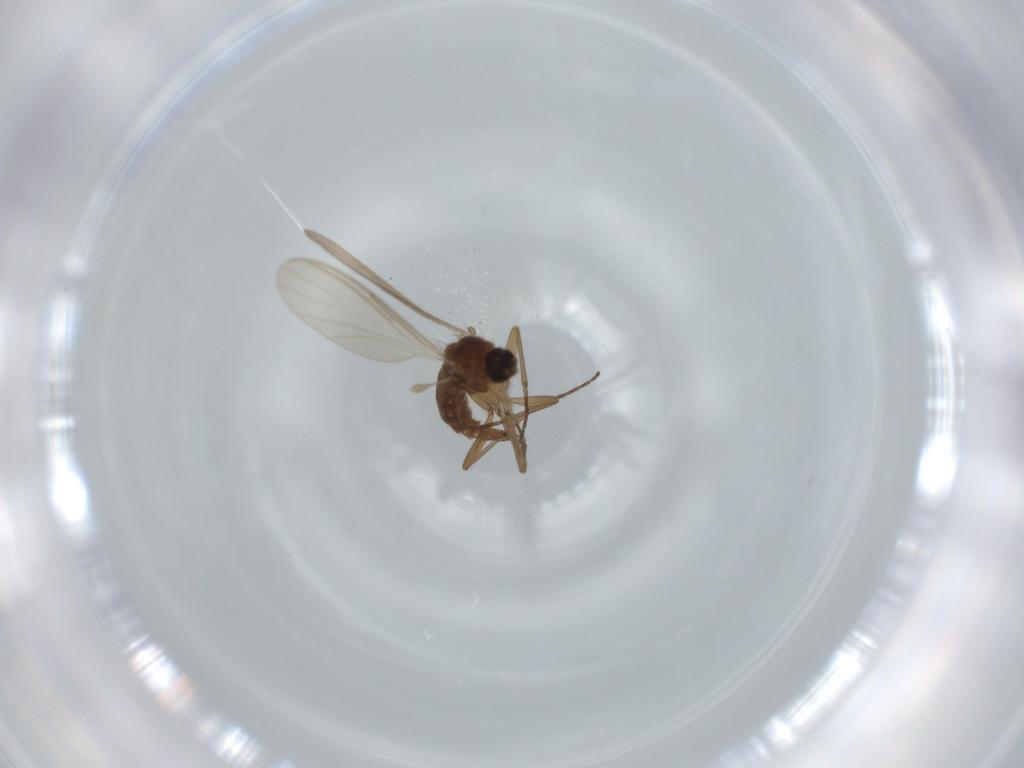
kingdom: Animalia
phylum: Arthropoda
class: Insecta
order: Diptera
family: Hybotidae
